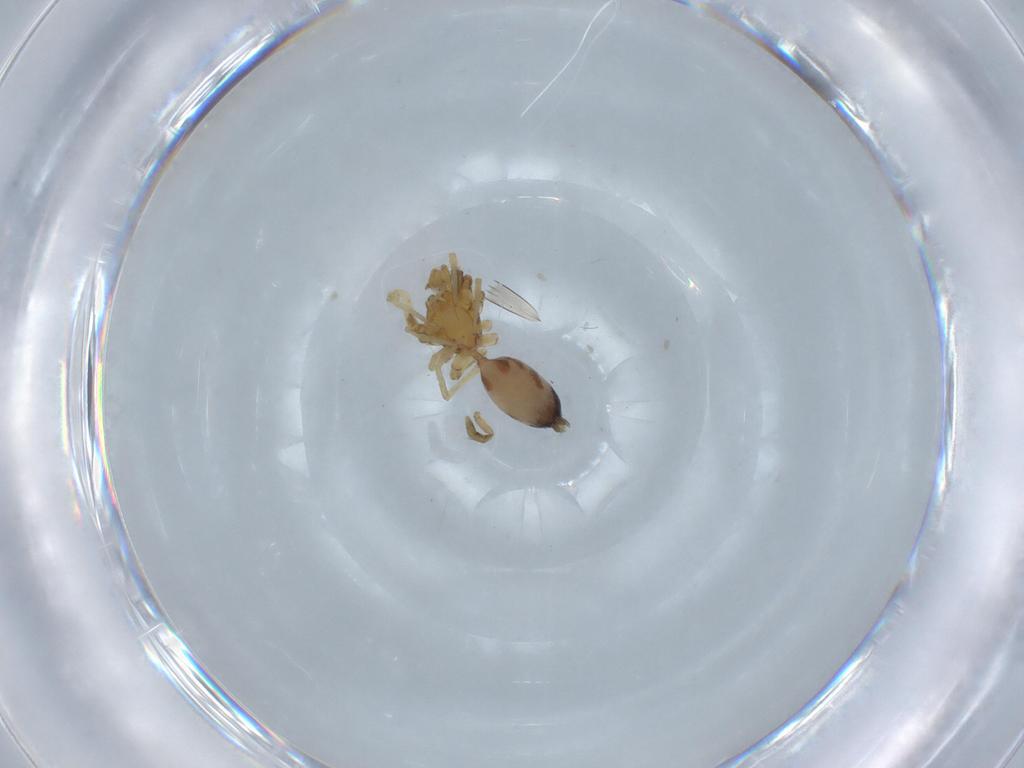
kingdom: Animalia
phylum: Arthropoda
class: Arachnida
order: Araneae
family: Gnaphosidae
